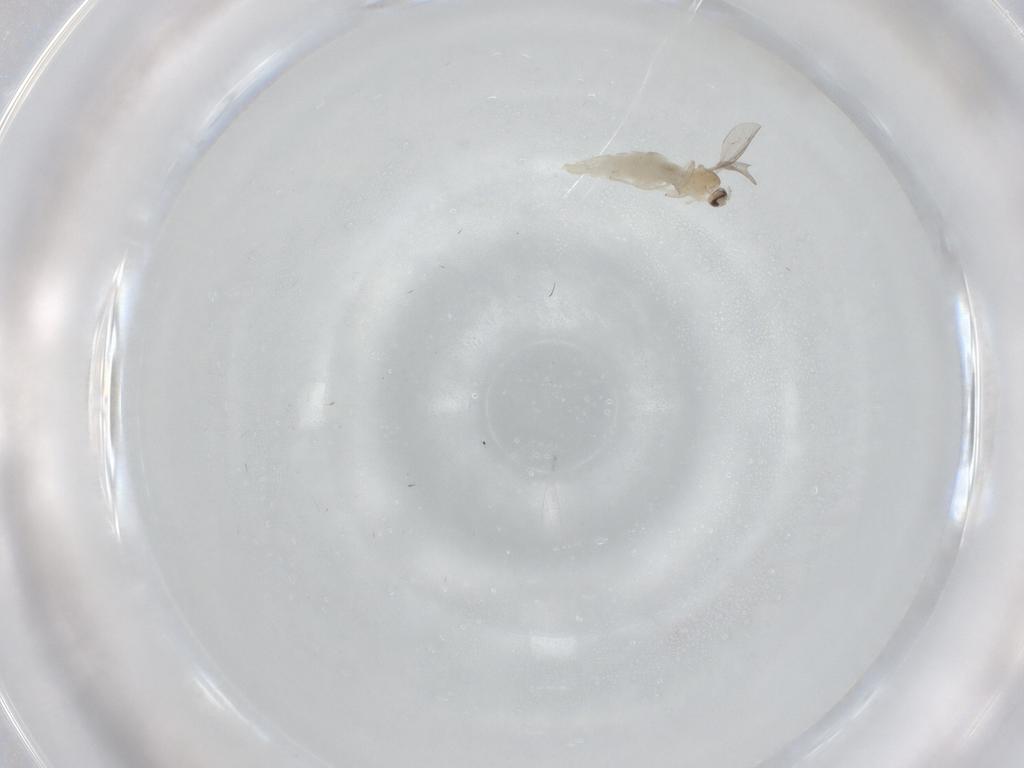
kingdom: Animalia
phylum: Arthropoda
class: Insecta
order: Diptera
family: Cecidomyiidae
